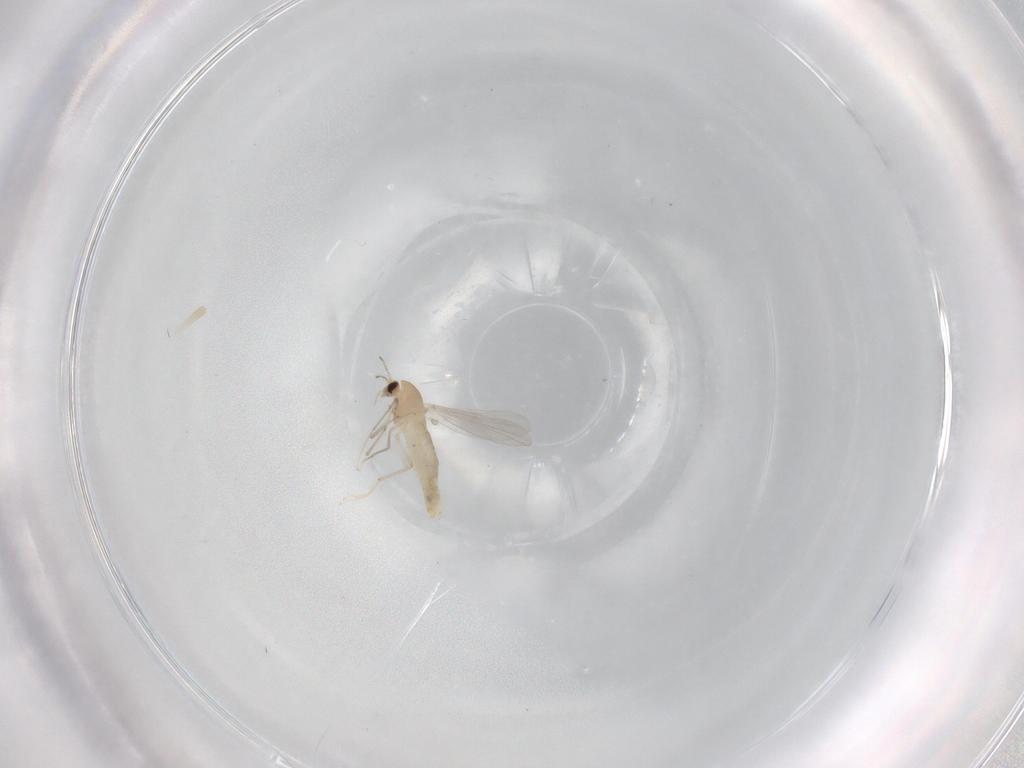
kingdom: Animalia
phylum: Arthropoda
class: Insecta
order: Diptera
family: Chironomidae
